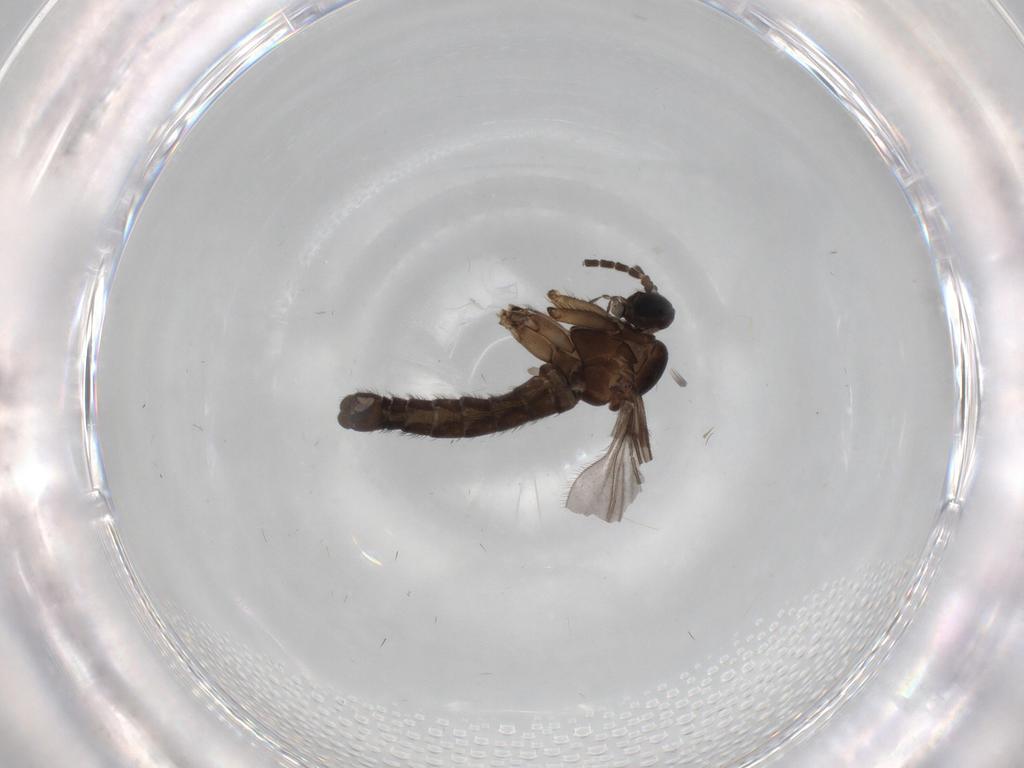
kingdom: Animalia
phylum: Arthropoda
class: Insecta
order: Diptera
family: Sciaridae
